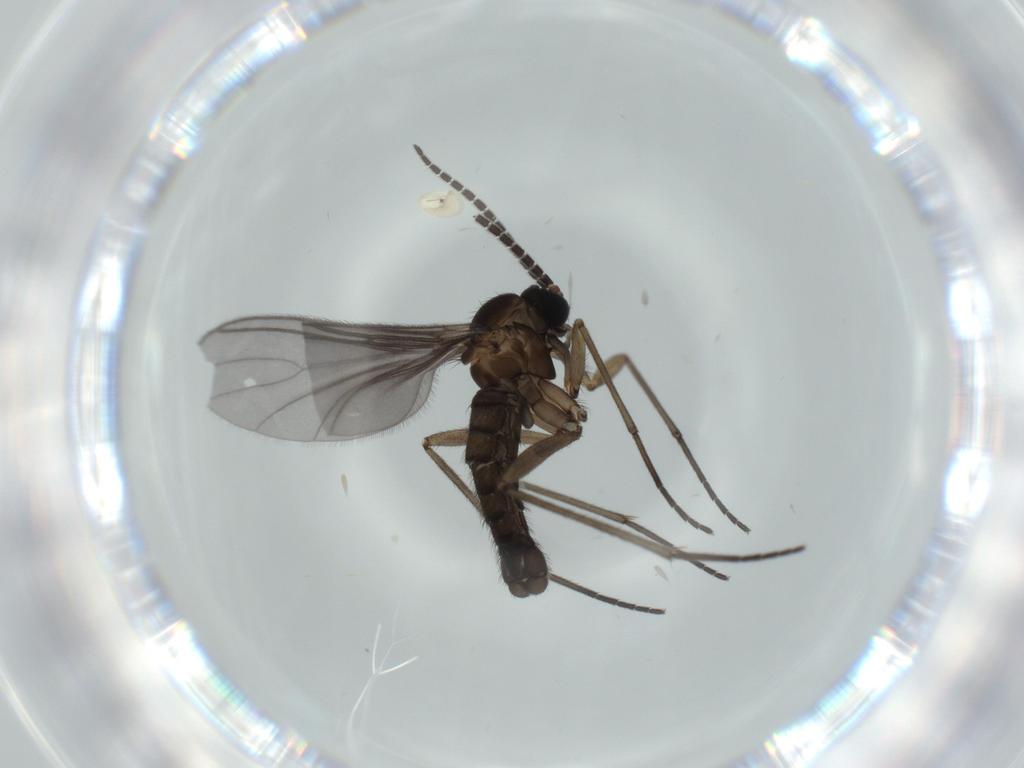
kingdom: Animalia
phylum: Arthropoda
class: Insecta
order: Diptera
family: Sciaridae
